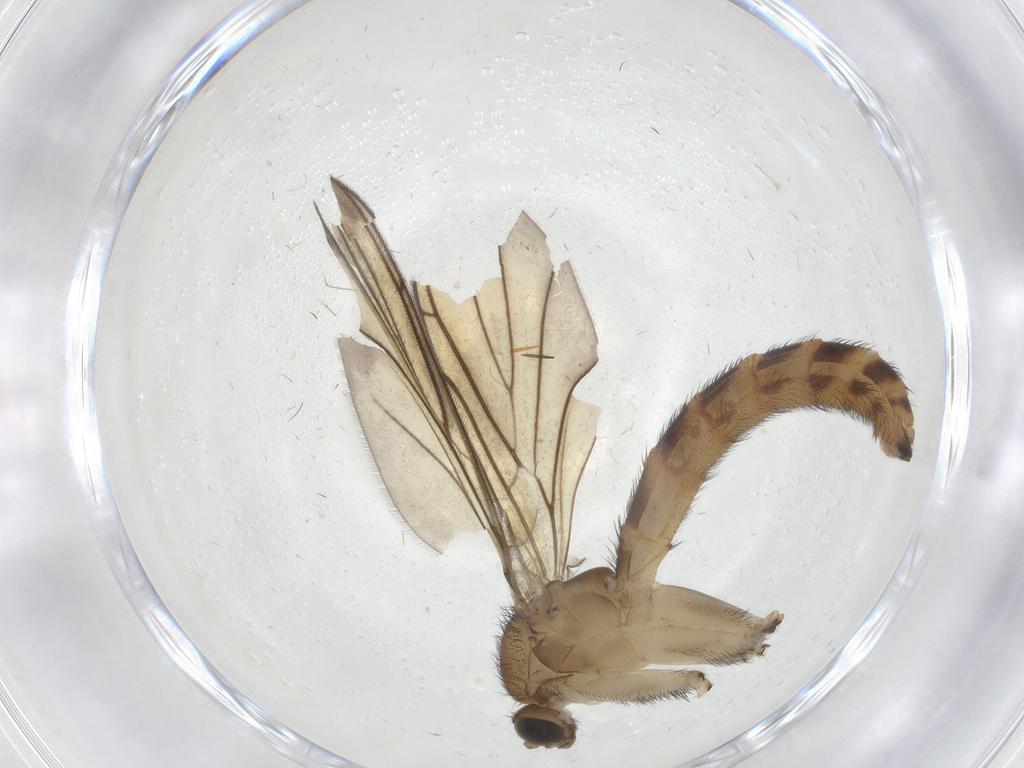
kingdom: Animalia
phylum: Arthropoda
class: Insecta
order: Diptera
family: Keroplatidae
